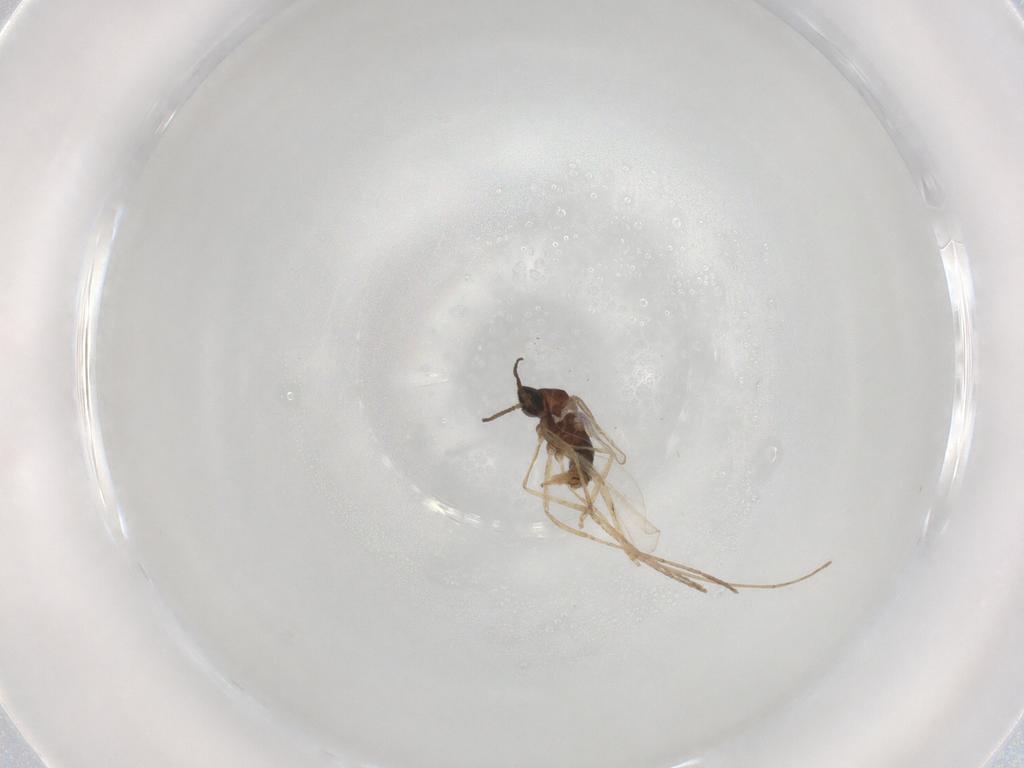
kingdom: Animalia
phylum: Arthropoda
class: Insecta
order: Diptera
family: Cecidomyiidae
